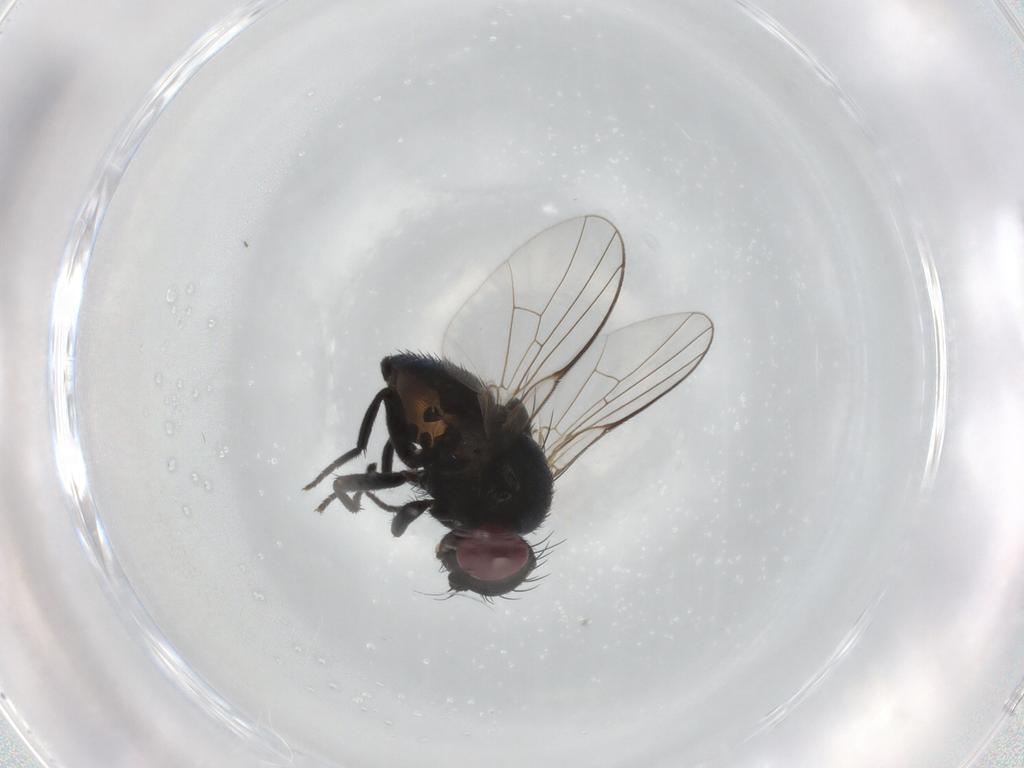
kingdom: Animalia
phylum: Arthropoda
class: Insecta
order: Diptera
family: Agromyzidae
